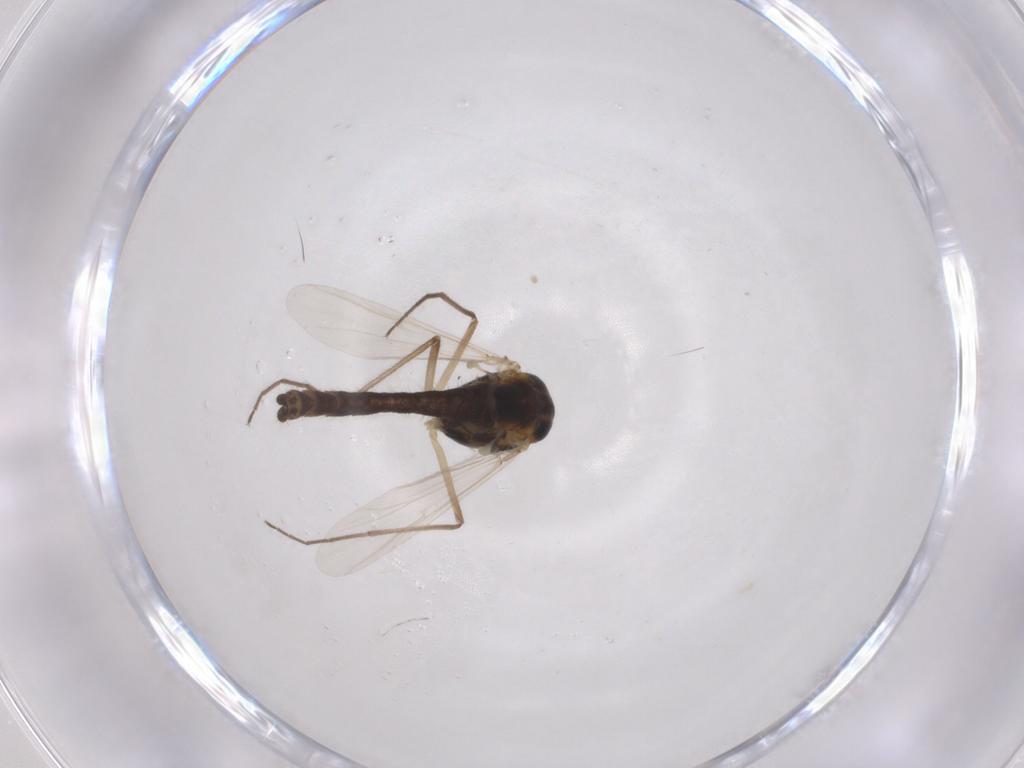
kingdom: Animalia
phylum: Arthropoda
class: Insecta
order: Diptera
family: Chironomidae
